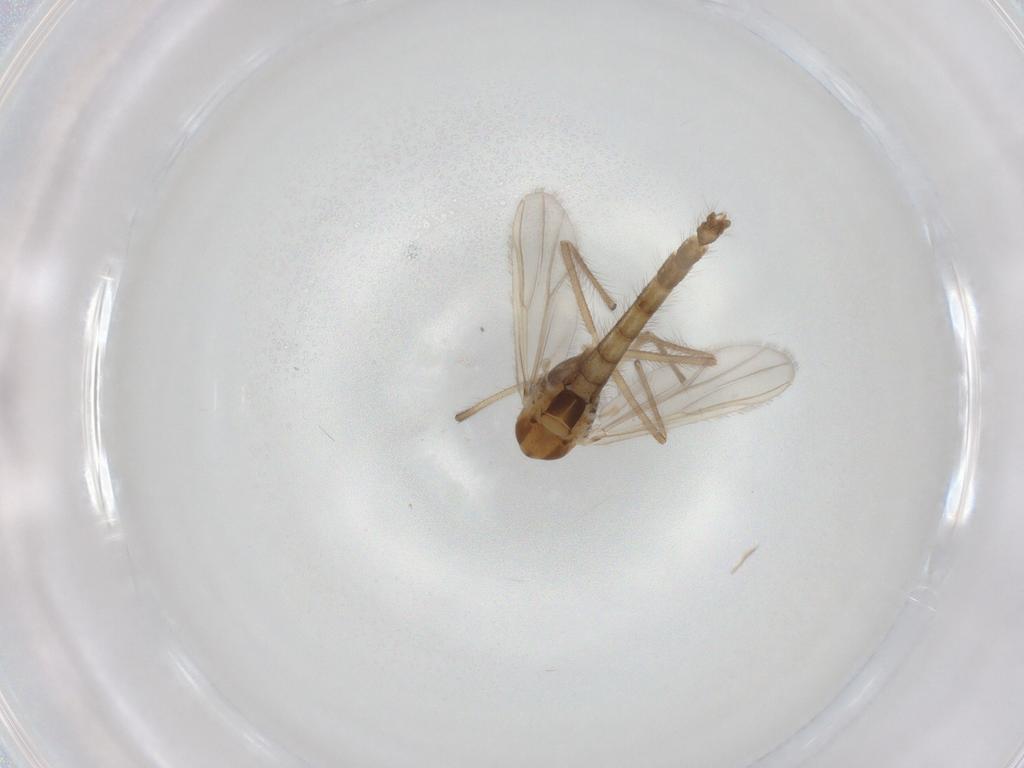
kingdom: Animalia
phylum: Arthropoda
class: Insecta
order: Diptera
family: Chironomidae
